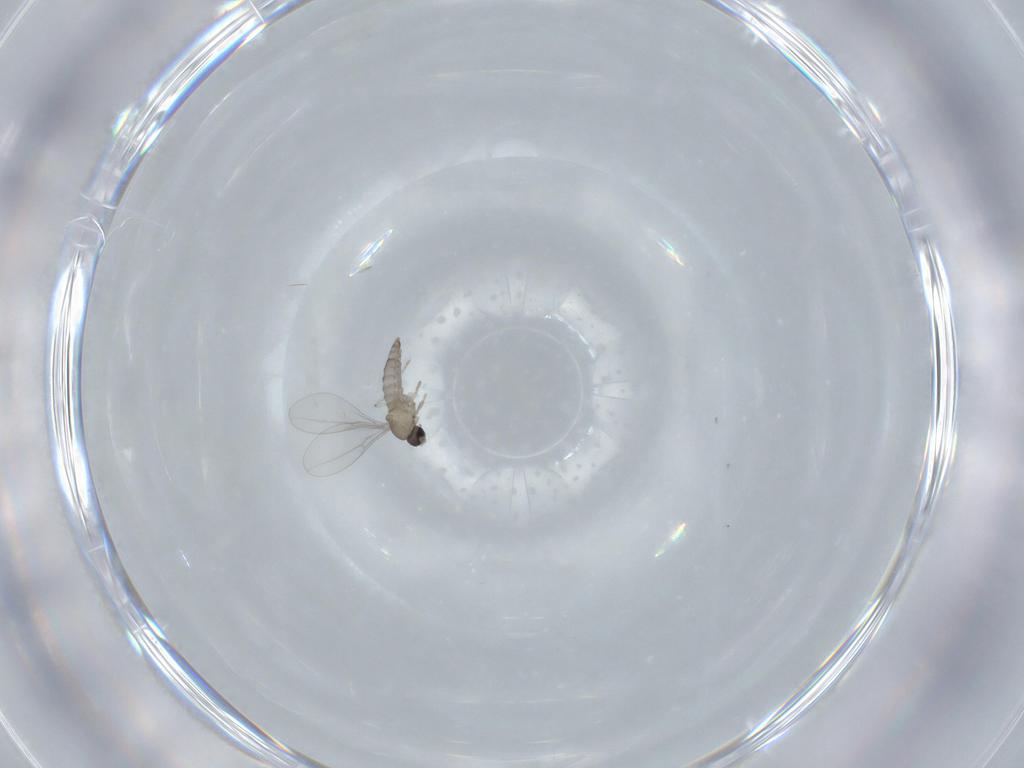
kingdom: Animalia
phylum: Arthropoda
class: Insecta
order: Diptera
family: Cecidomyiidae
